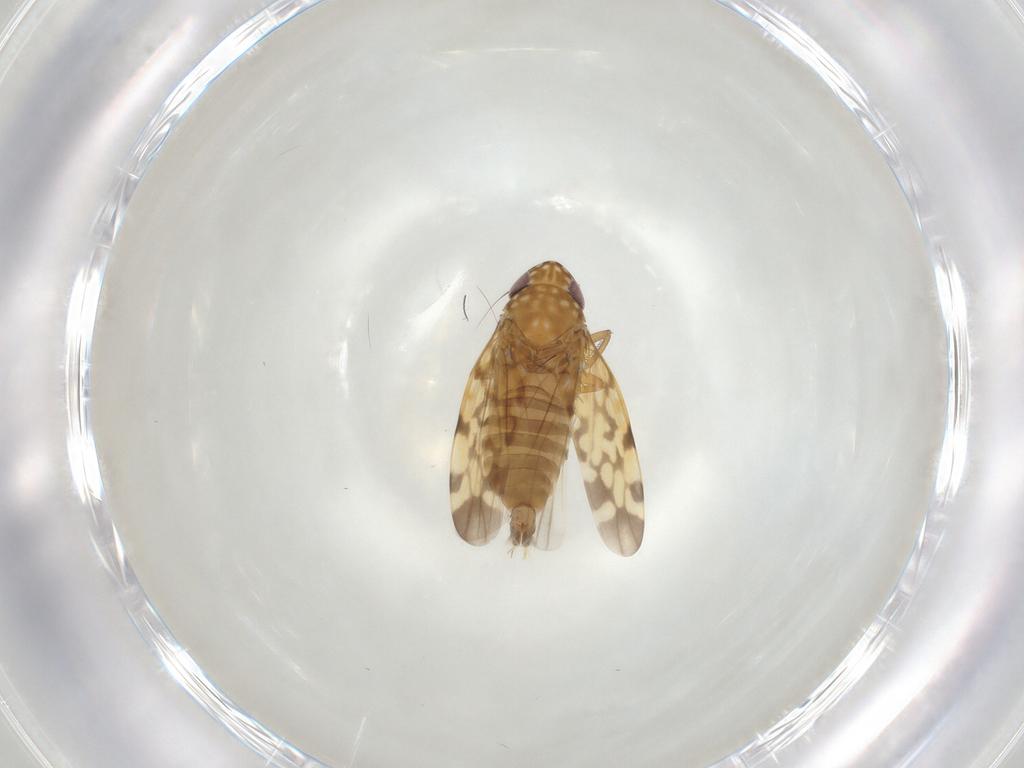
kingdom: Animalia
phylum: Arthropoda
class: Insecta
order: Hemiptera
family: Cicadellidae
